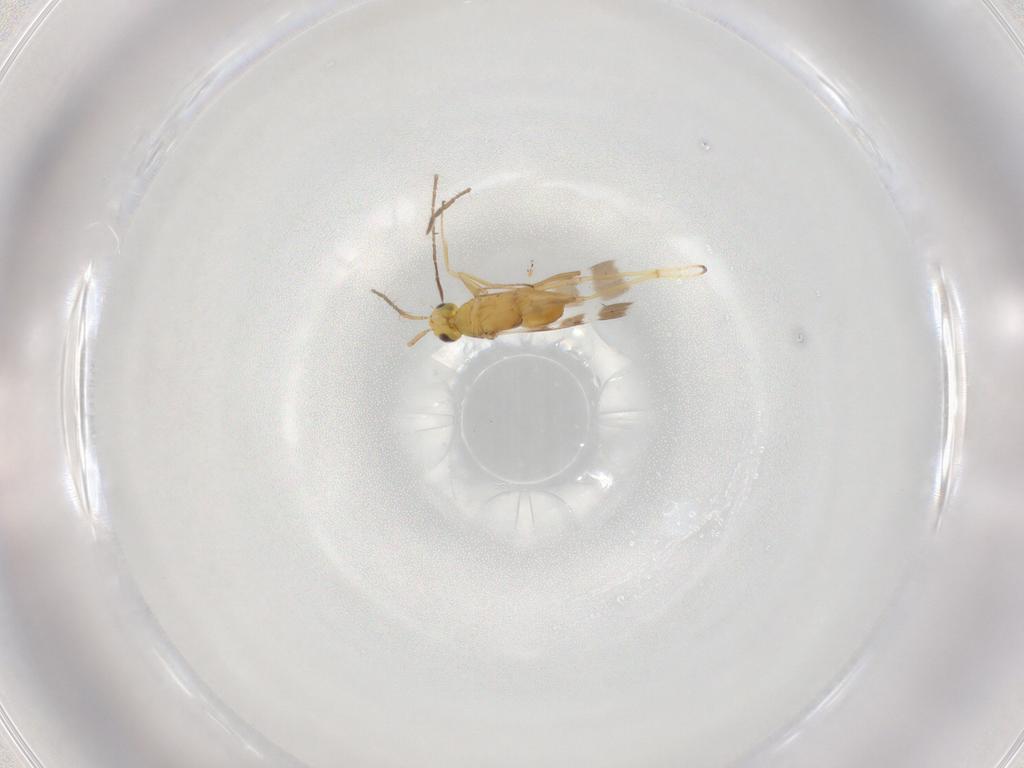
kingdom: Animalia
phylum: Arthropoda
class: Insecta
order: Hymenoptera
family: Bethylidae
